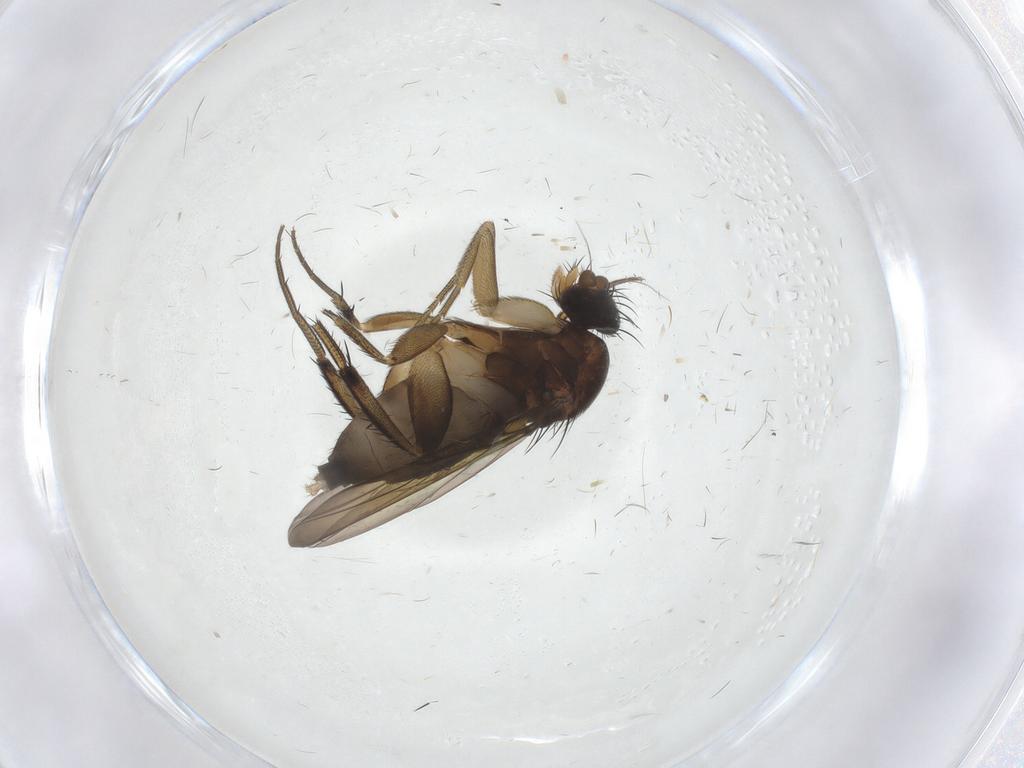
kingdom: Animalia
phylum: Arthropoda
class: Insecta
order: Diptera
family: Phoridae
